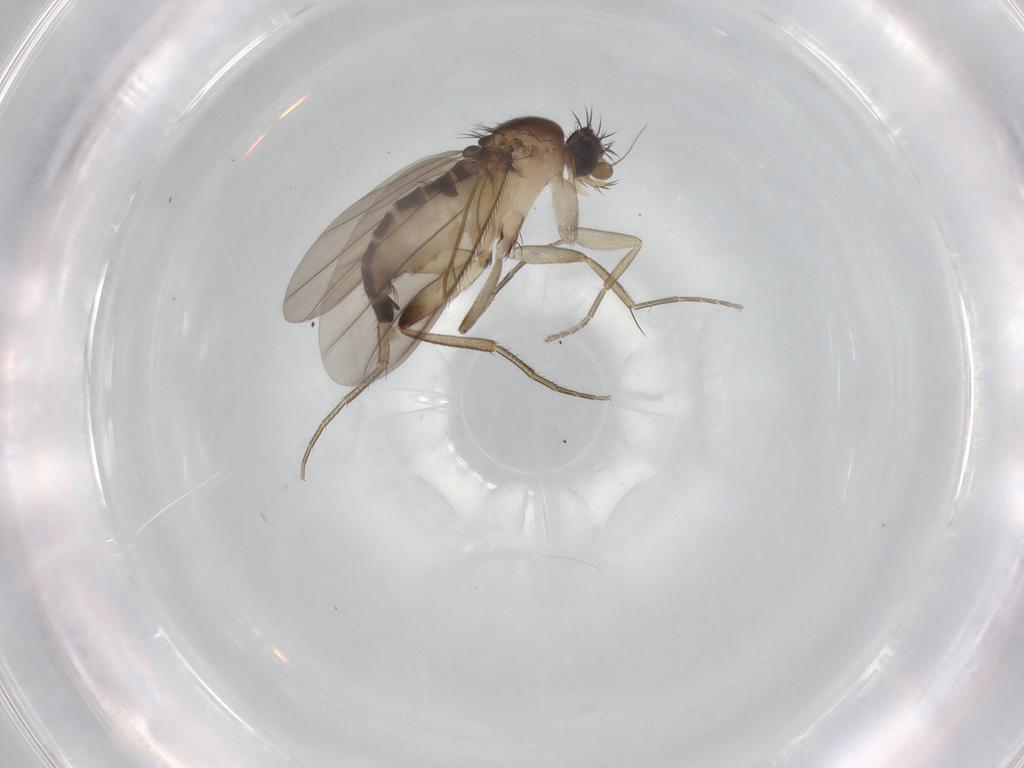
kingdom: Animalia
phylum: Arthropoda
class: Insecta
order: Diptera
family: Phoridae
